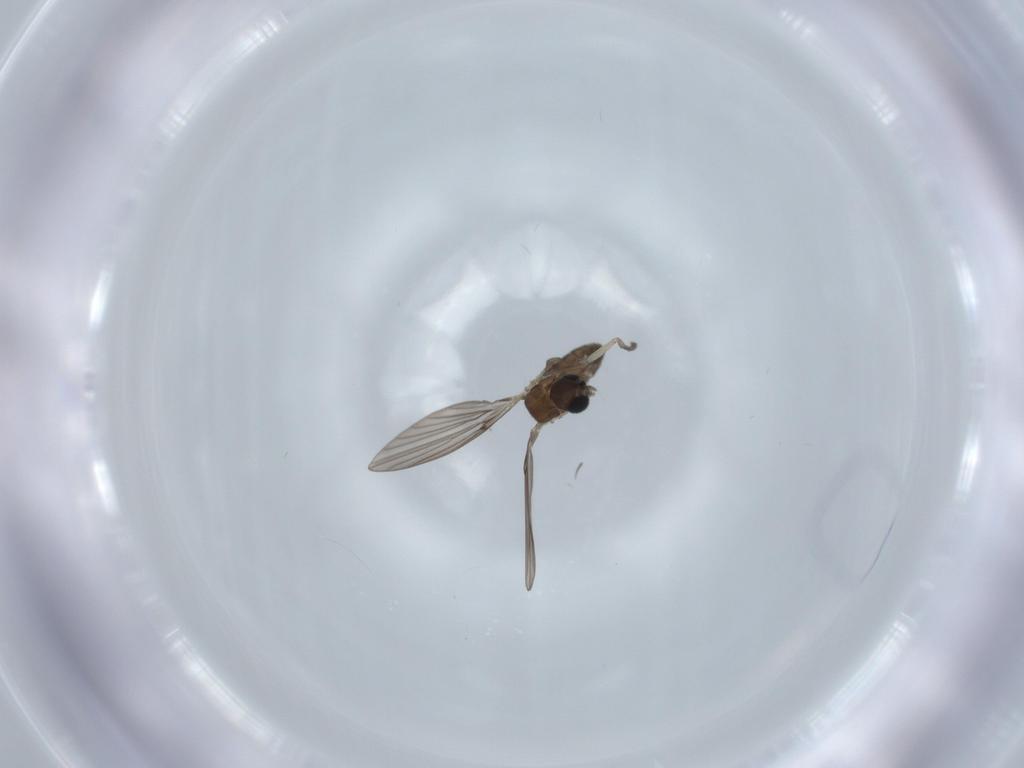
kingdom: Animalia
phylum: Arthropoda
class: Insecta
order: Diptera
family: Psychodidae
